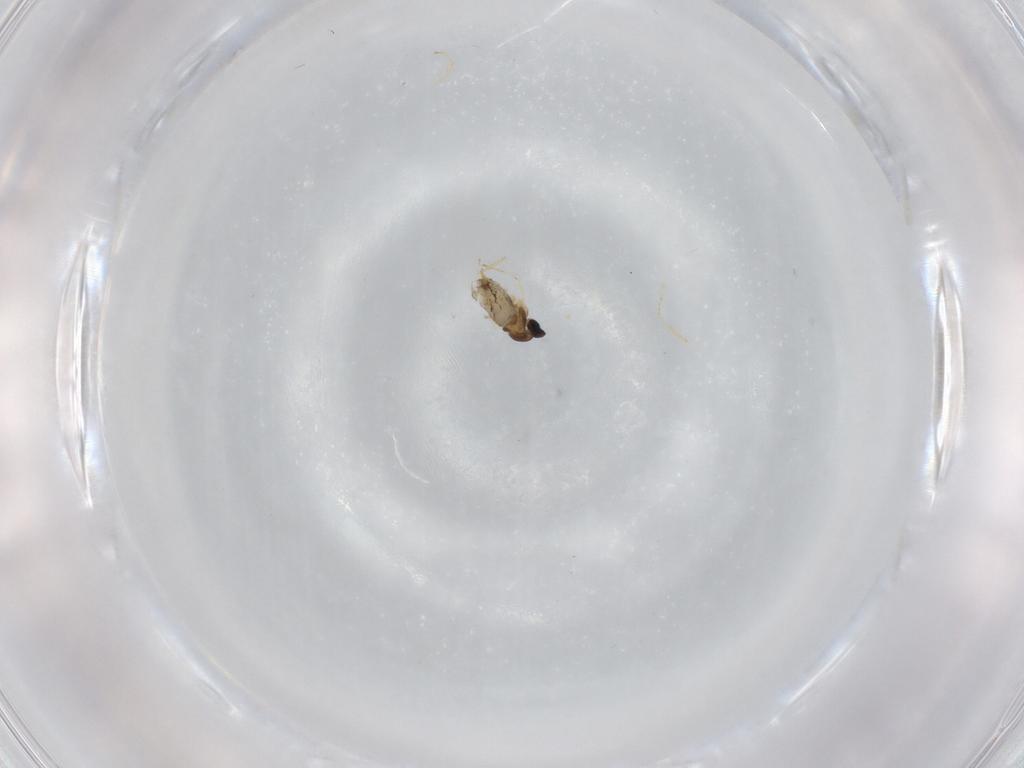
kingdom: Animalia
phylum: Arthropoda
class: Insecta
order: Diptera
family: Cecidomyiidae
